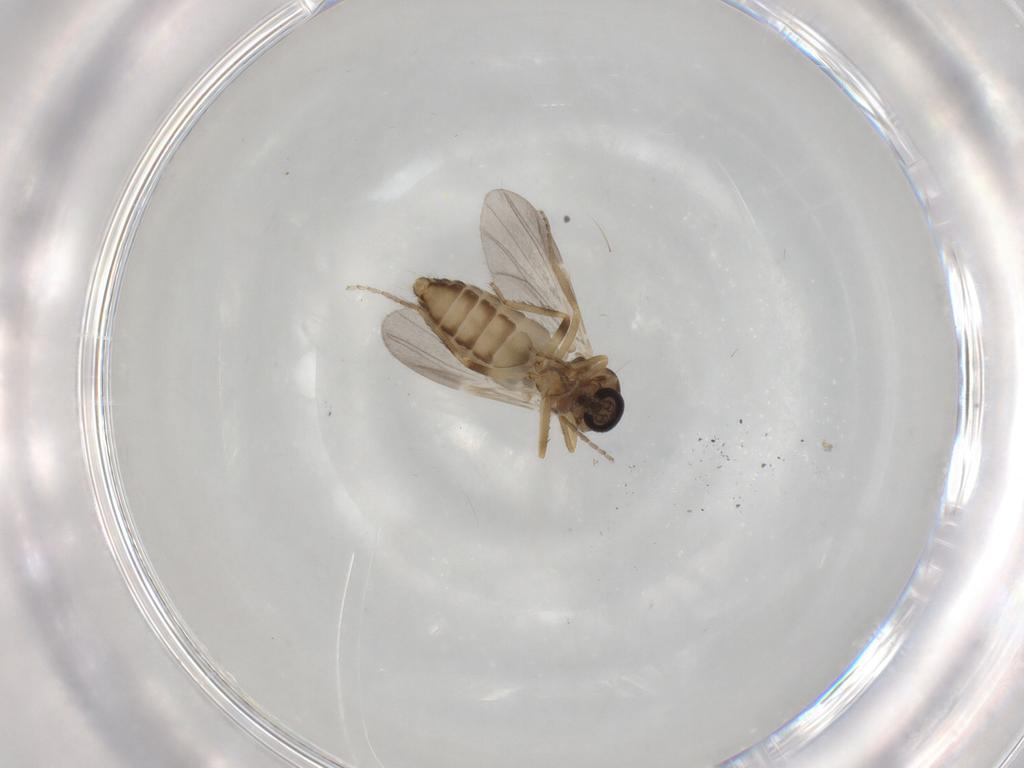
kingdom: Animalia
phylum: Arthropoda
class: Insecta
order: Diptera
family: Ceratopogonidae
